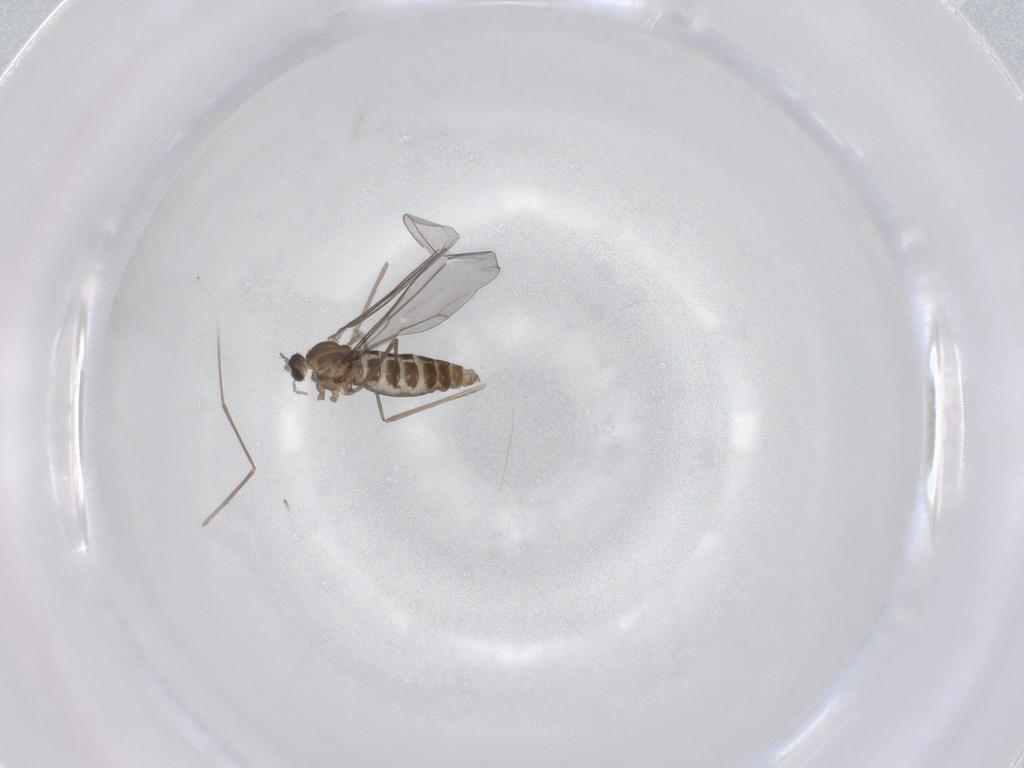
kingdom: Animalia
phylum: Arthropoda
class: Insecta
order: Diptera
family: Cecidomyiidae
